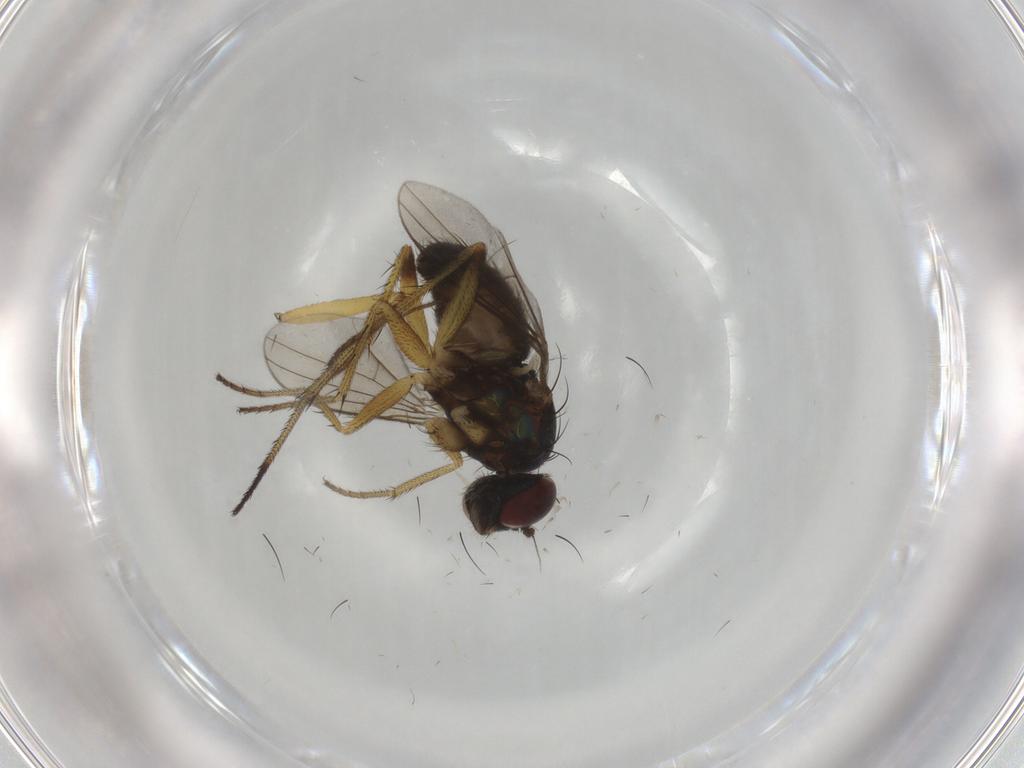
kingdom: Animalia
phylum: Arthropoda
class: Insecta
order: Diptera
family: Dolichopodidae
